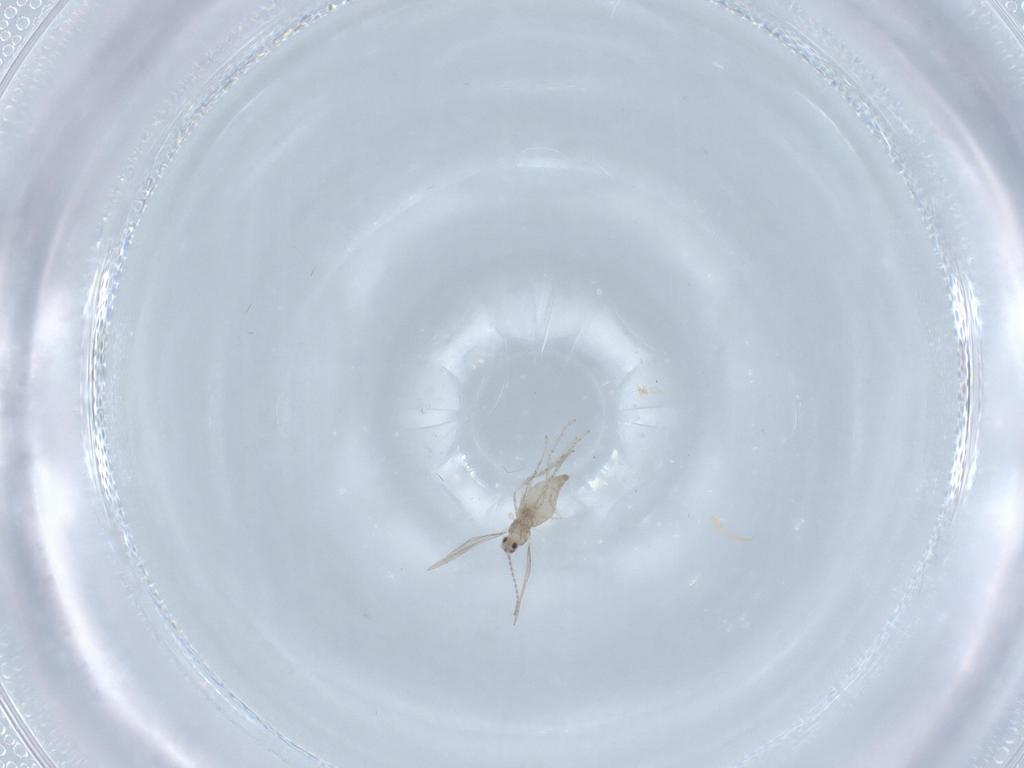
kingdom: Animalia
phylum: Arthropoda
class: Insecta
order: Diptera
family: Cecidomyiidae
